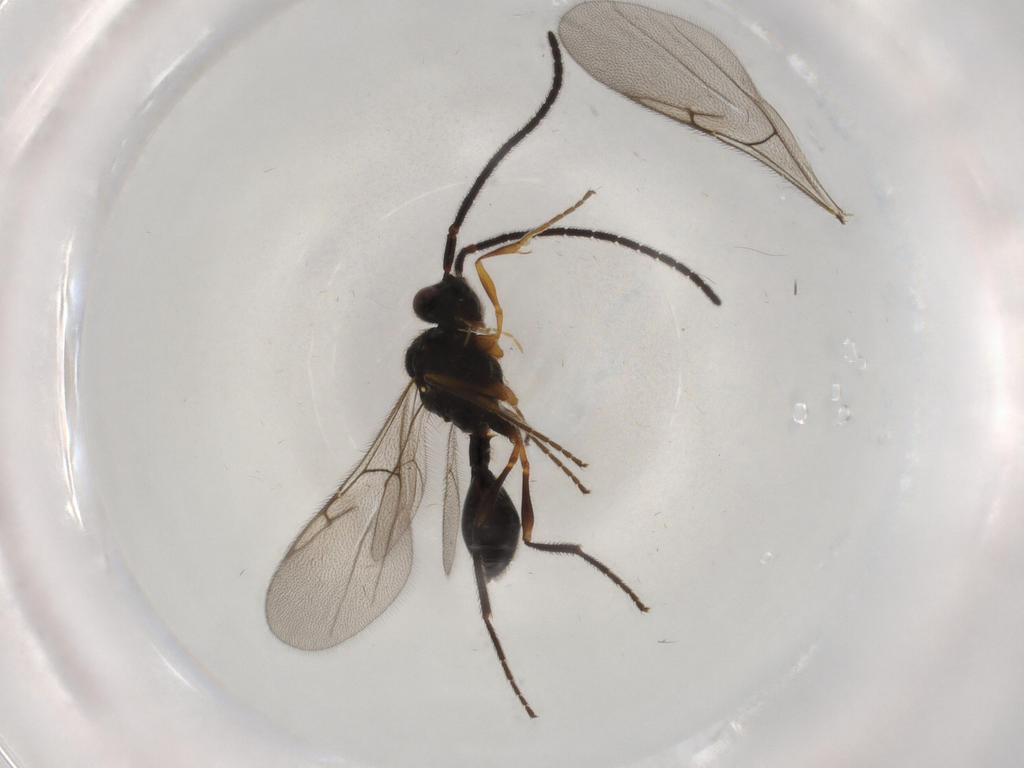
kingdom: Animalia
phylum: Arthropoda
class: Insecta
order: Hymenoptera
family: Diapriidae
